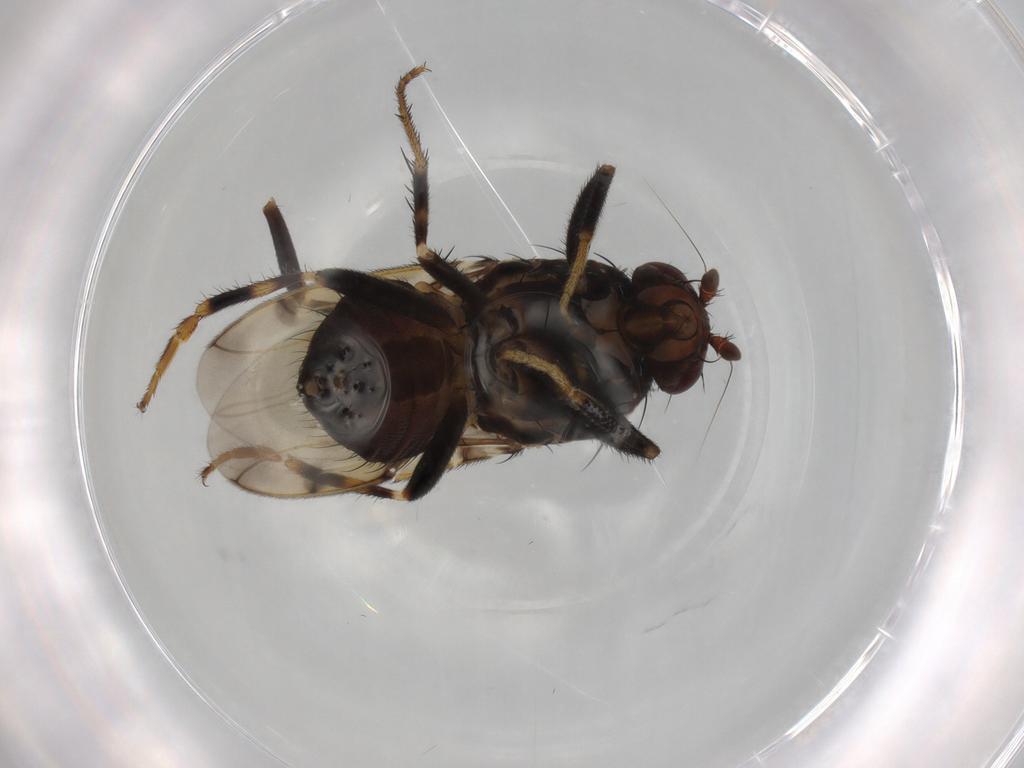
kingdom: Animalia
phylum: Arthropoda
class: Insecta
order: Diptera
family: Sphaeroceridae
